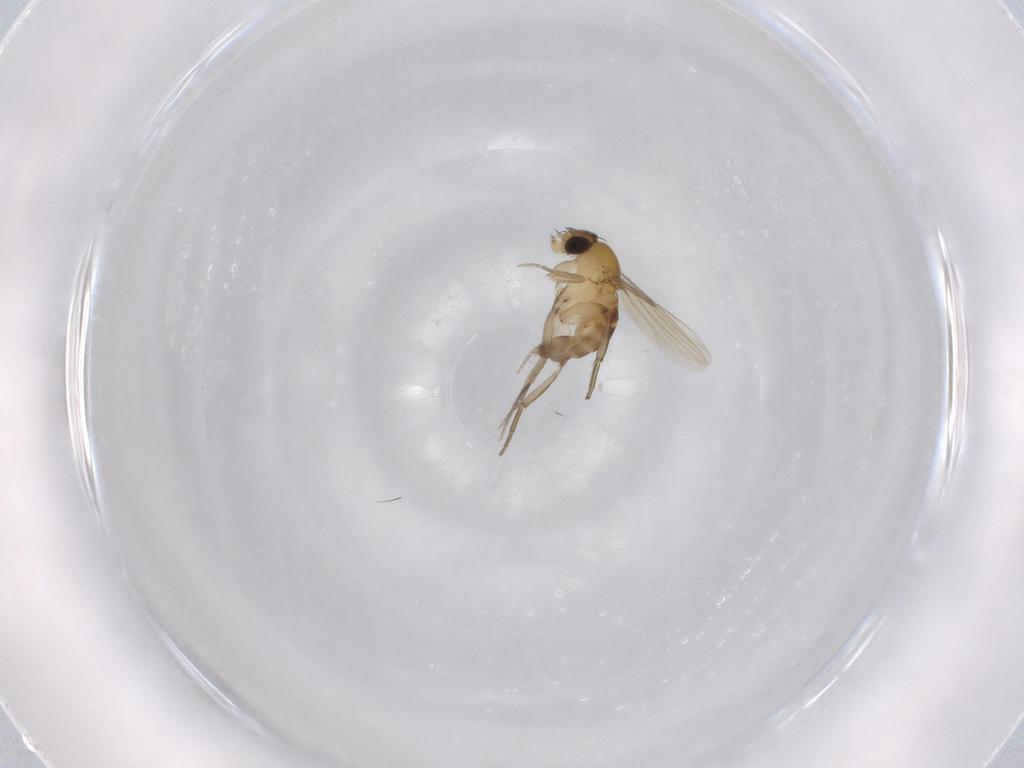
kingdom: Animalia
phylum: Arthropoda
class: Insecta
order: Diptera
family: Phoridae
